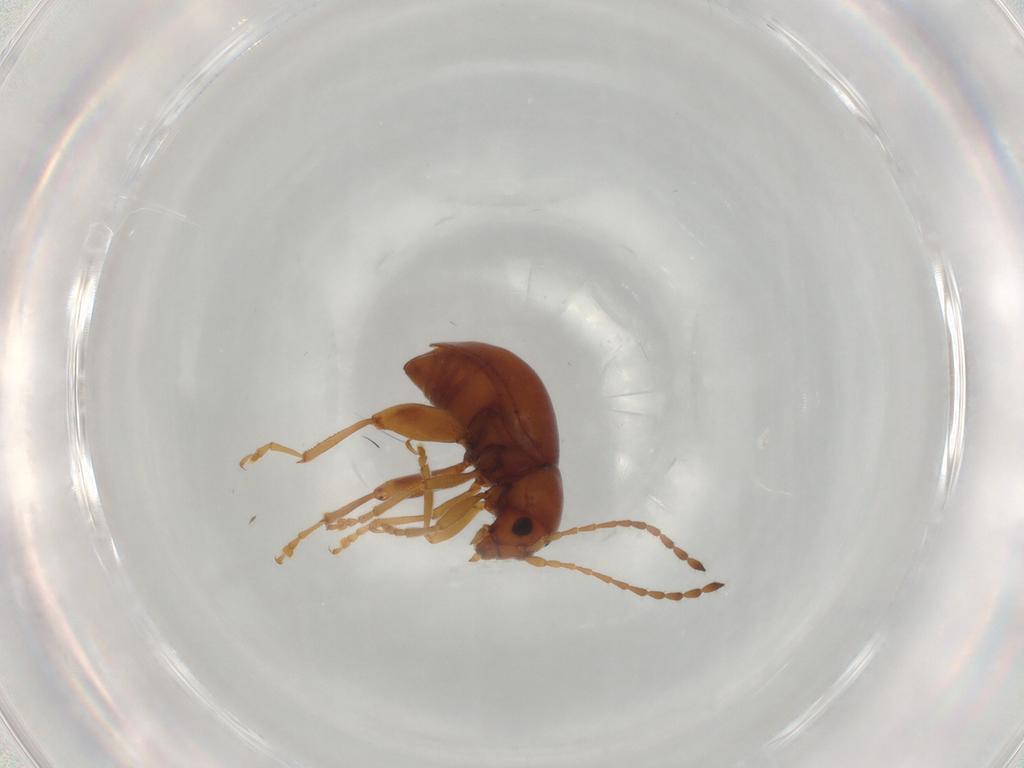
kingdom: Animalia
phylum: Arthropoda
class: Insecta
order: Coleoptera
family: Chrysomelidae
